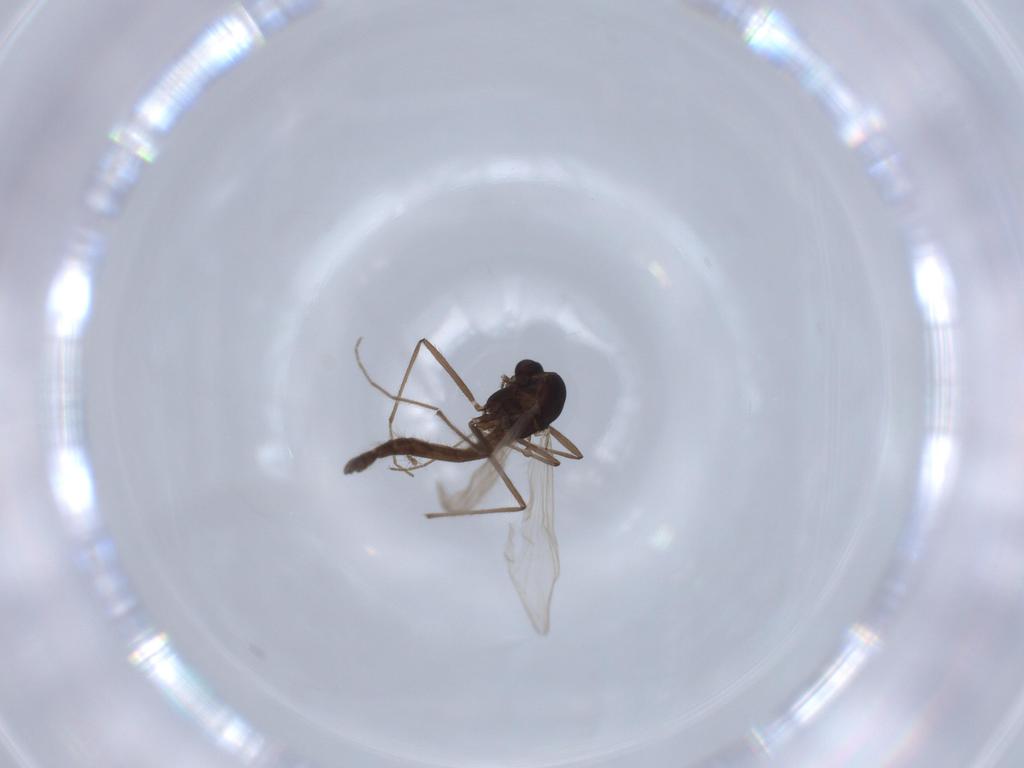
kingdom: Animalia
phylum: Arthropoda
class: Insecta
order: Diptera
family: Chironomidae
